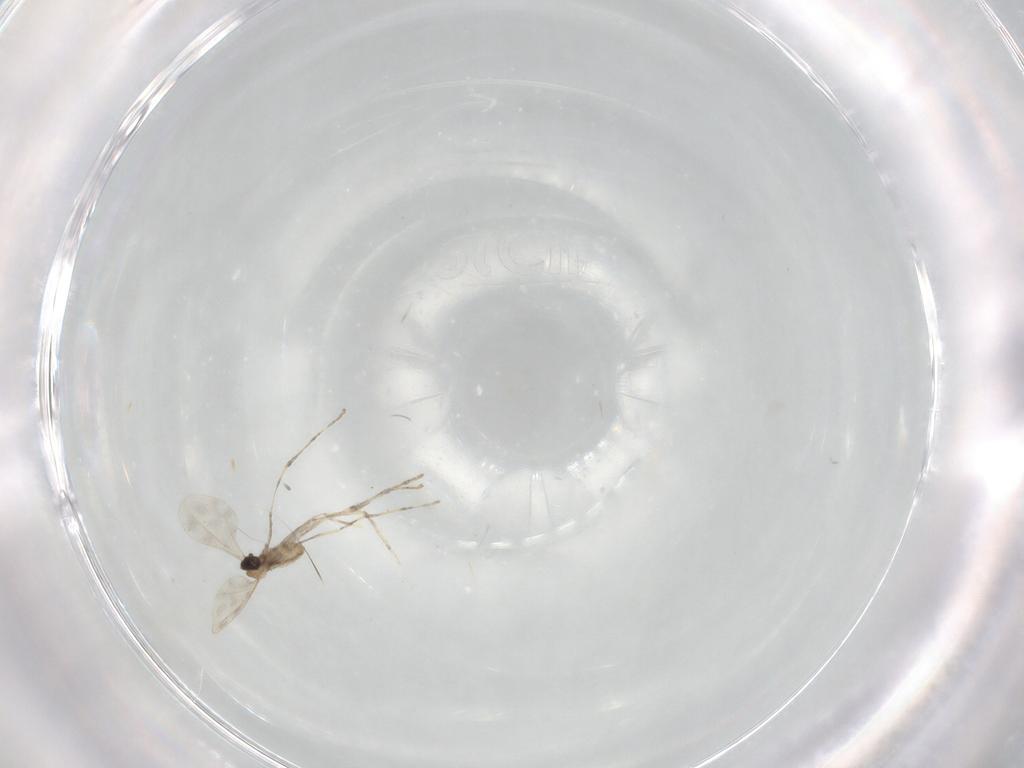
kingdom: Animalia
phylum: Arthropoda
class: Insecta
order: Diptera
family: Cecidomyiidae
